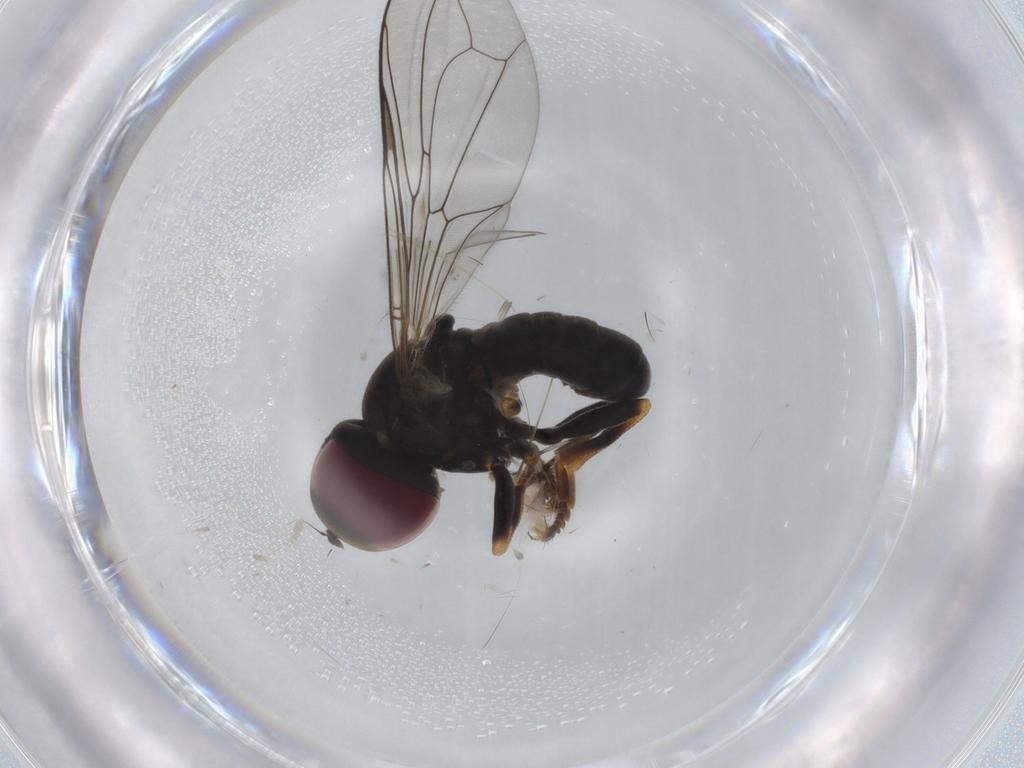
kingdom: Animalia
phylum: Arthropoda
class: Insecta
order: Diptera
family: Pipunculidae
